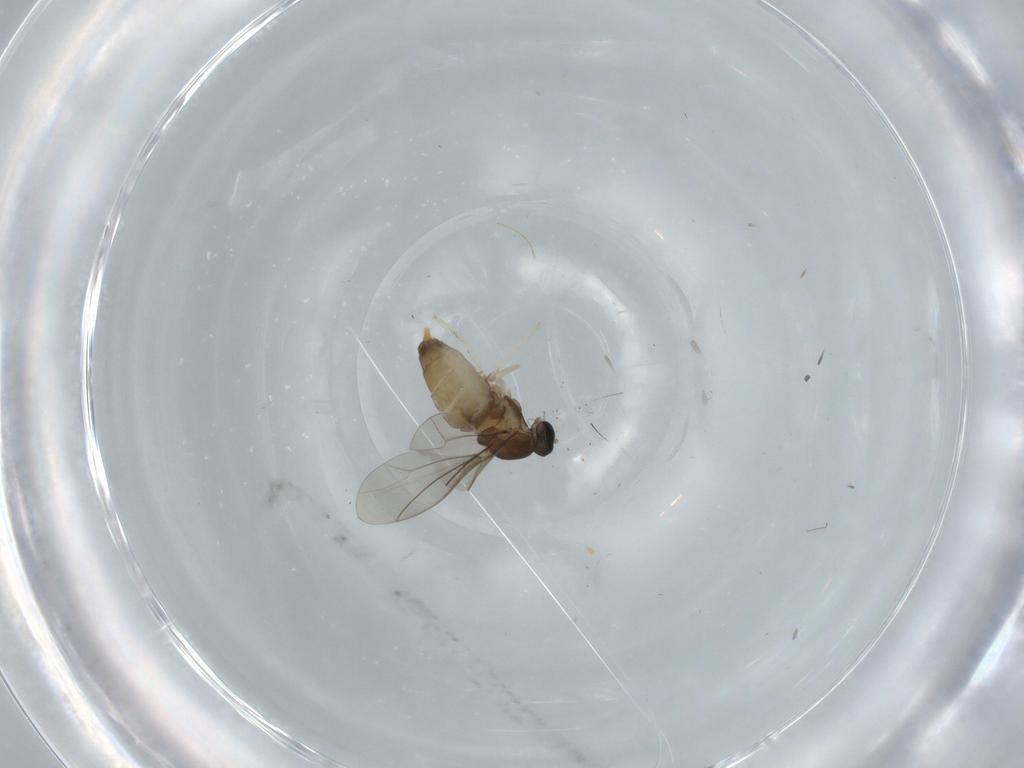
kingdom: Animalia
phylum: Arthropoda
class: Insecta
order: Diptera
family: Cecidomyiidae
